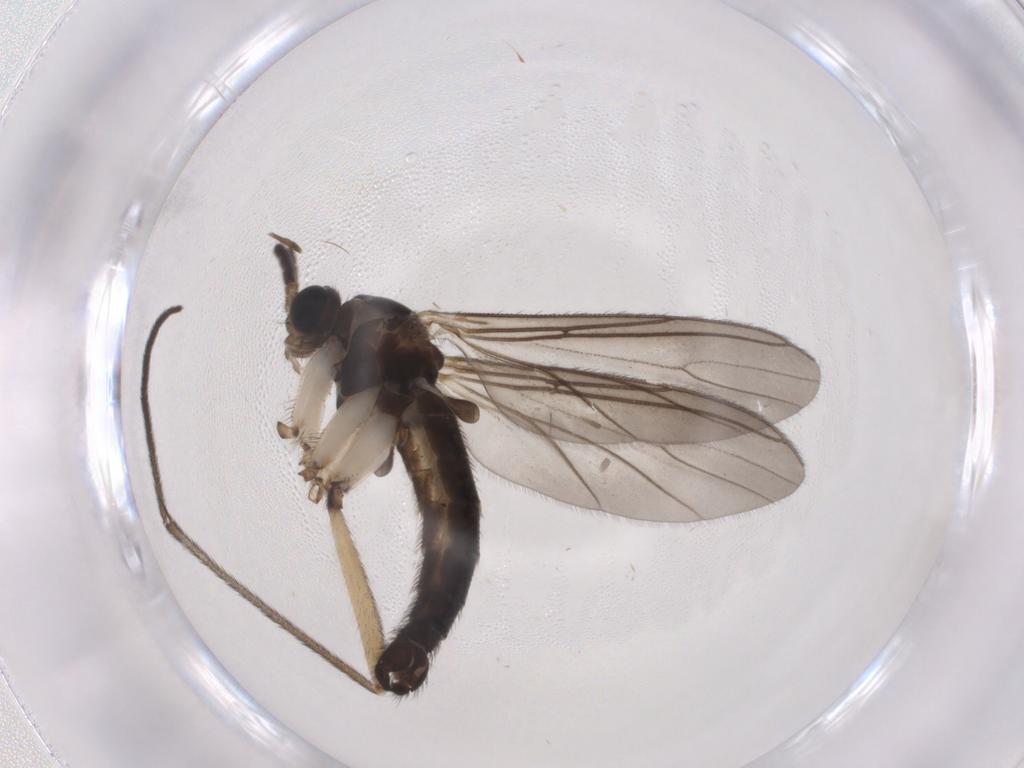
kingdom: Animalia
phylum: Arthropoda
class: Insecta
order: Diptera
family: Sciaridae
